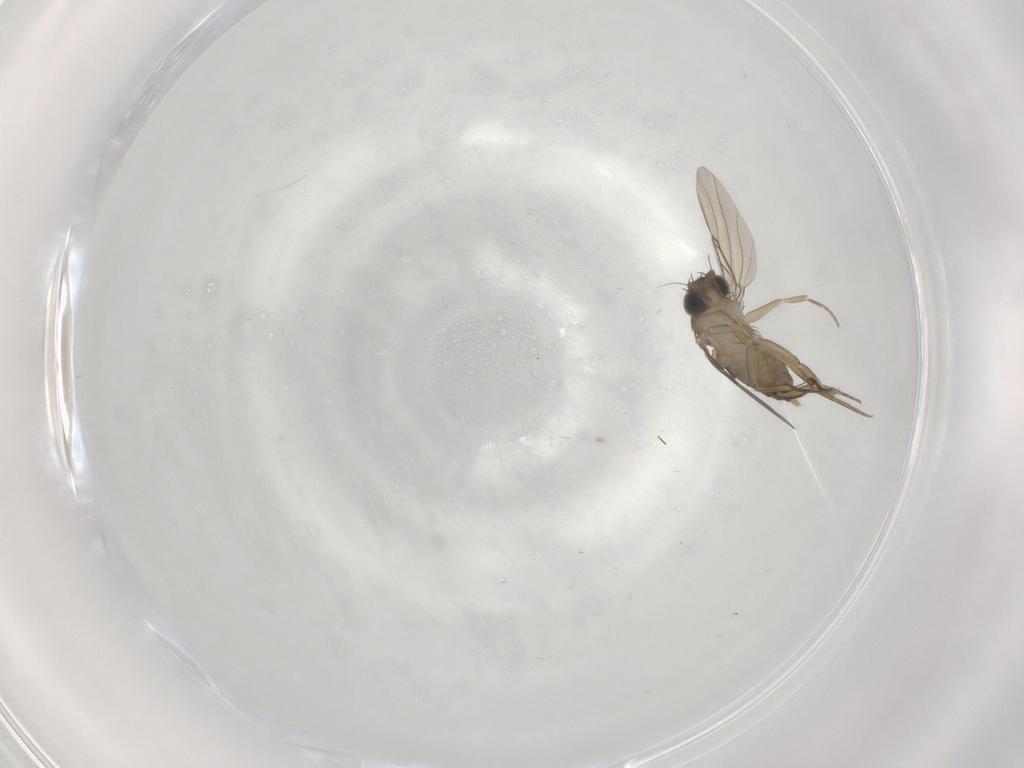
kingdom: Animalia
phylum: Arthropoda
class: Insecta
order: Diptera
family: Phoridae
